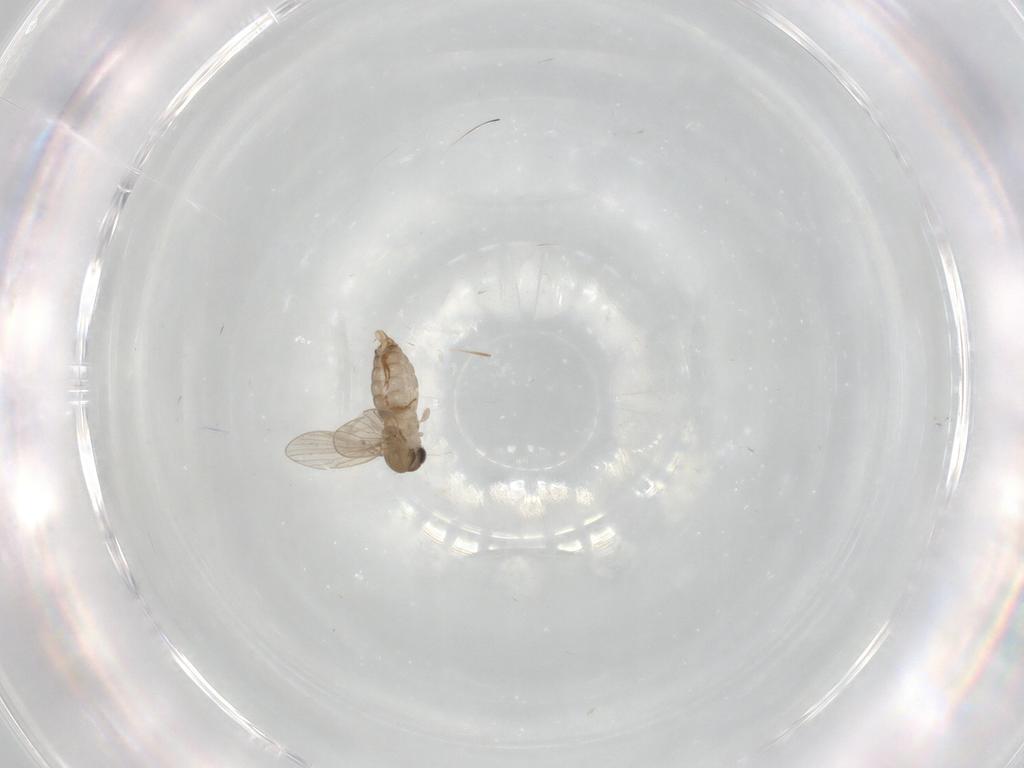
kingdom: Animalia
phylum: Arthropoda
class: Insecta
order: Diptera
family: Psychodidae
